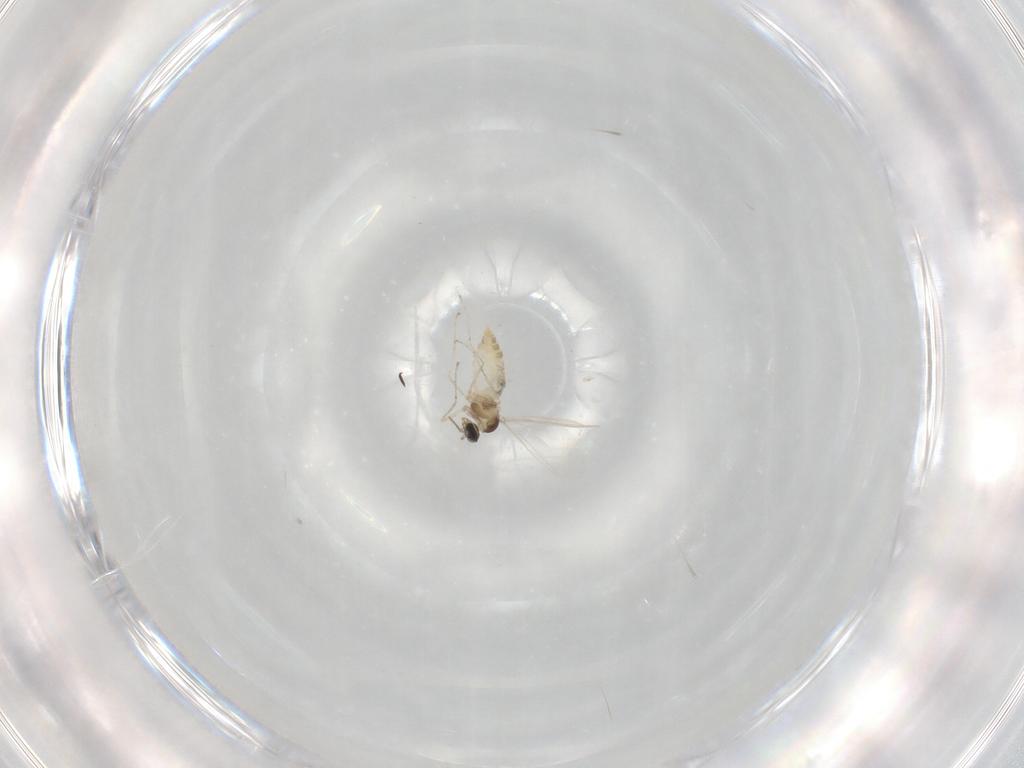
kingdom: Animalia
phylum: Arthropoda
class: Insecta
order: Diptera
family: Cecidomyiidae
